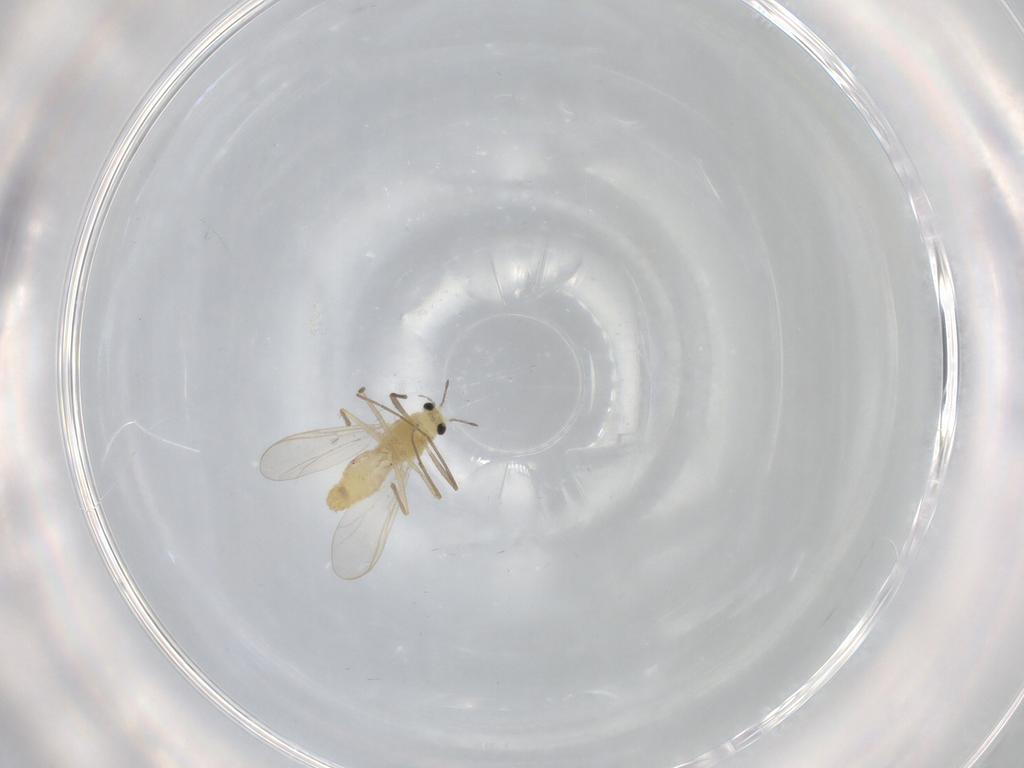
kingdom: Animalia
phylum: Arthropoda
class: Insecta
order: Diptera
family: Chironomidae
